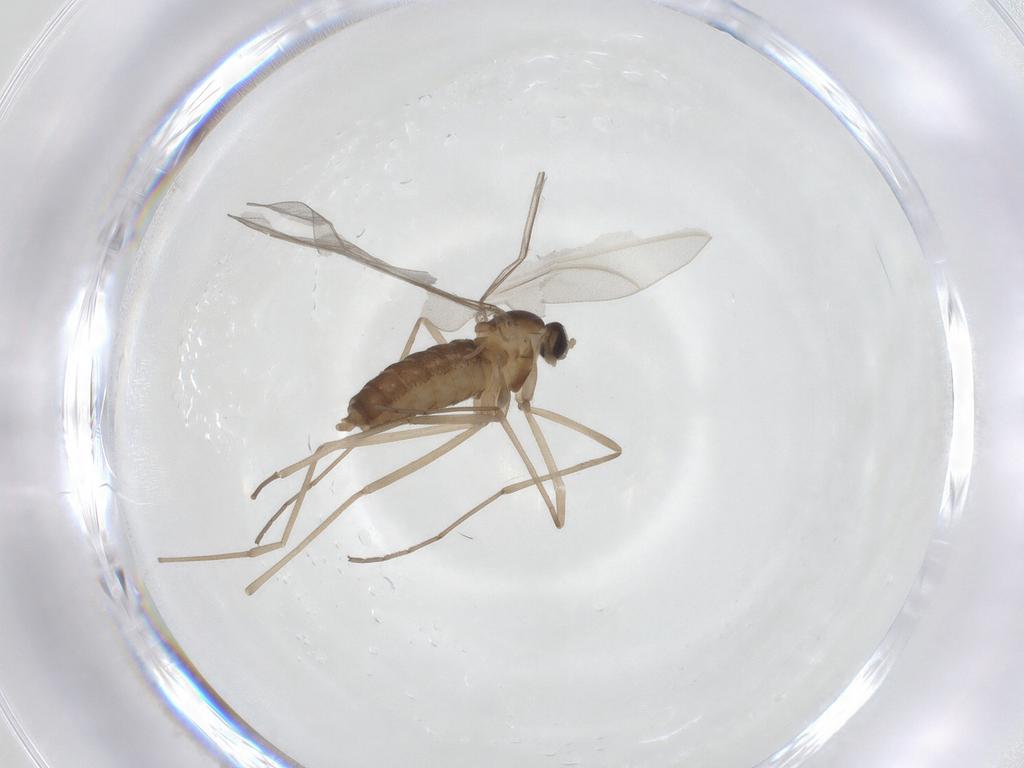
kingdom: Animalia
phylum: Arthropoda
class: Insecta
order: Diptera
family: Cecidomyiidae
